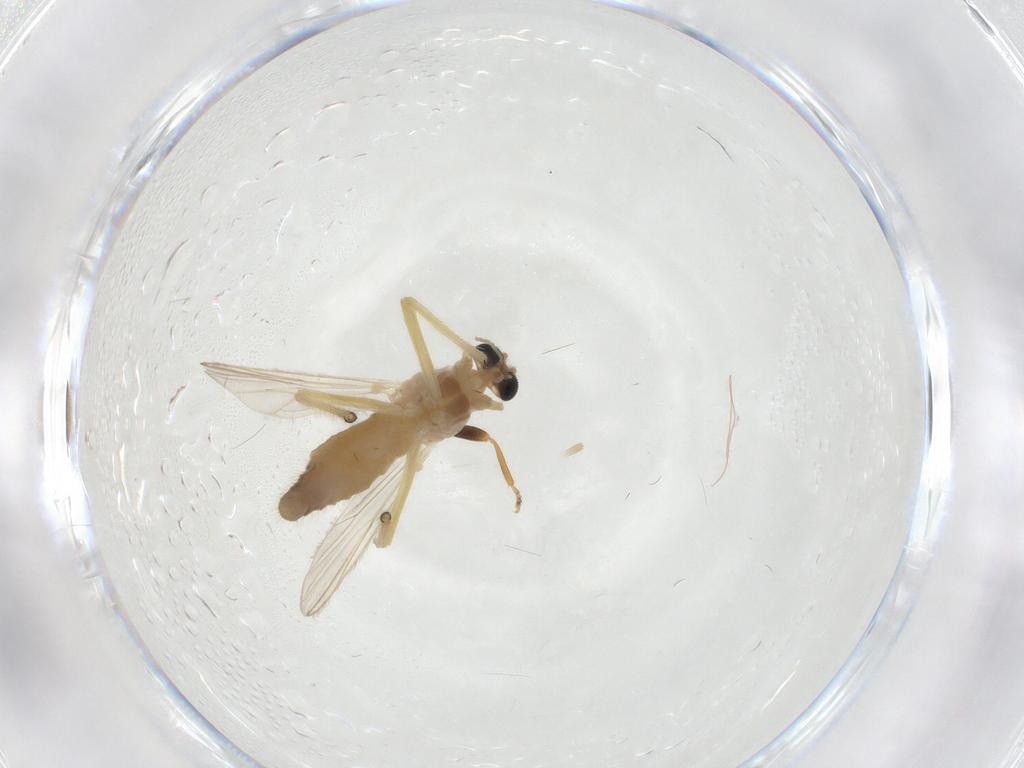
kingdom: Animalia
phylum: Arthropoda
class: Insecta
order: Diptera
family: Chironomidae
